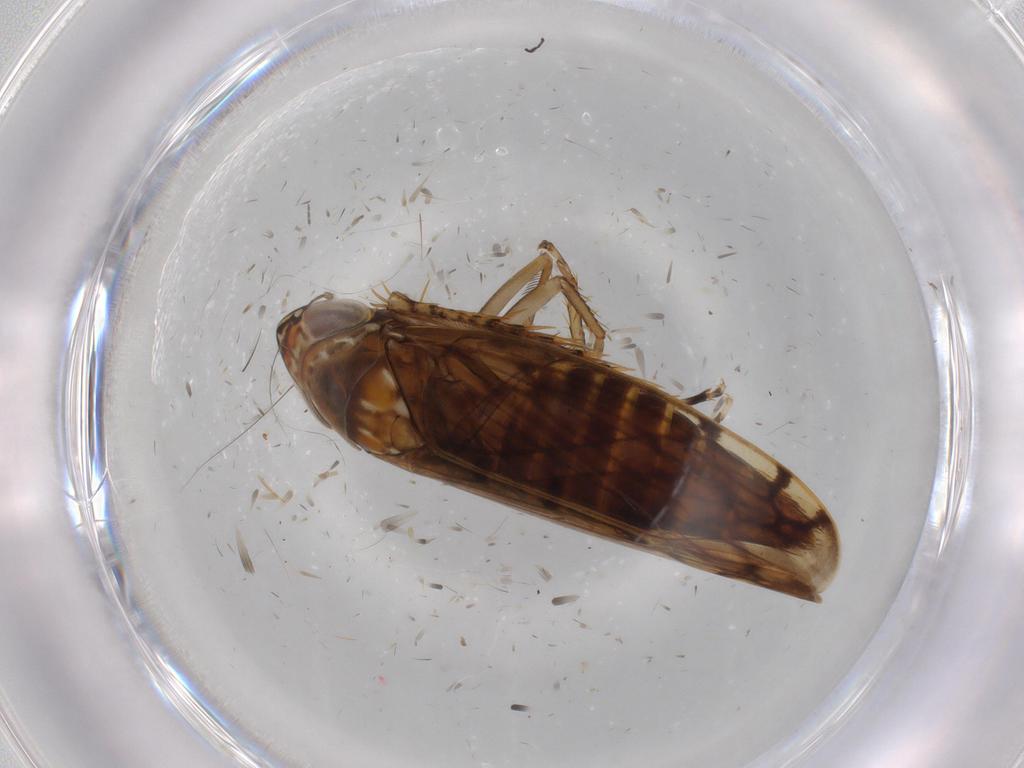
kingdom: Animalia
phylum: Arthropoda
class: Insecta
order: Hemiptera
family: Cicadellidae
